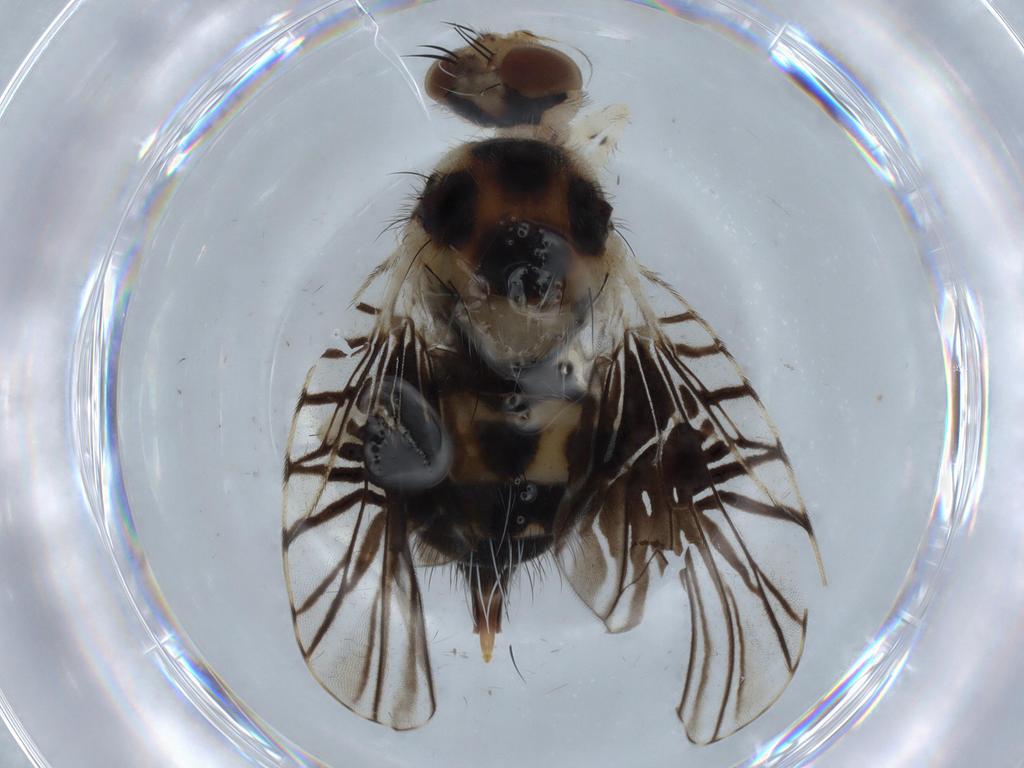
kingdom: Animalia
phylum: Arthropoda
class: Insecta
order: Diptera
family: Platystomatidae
